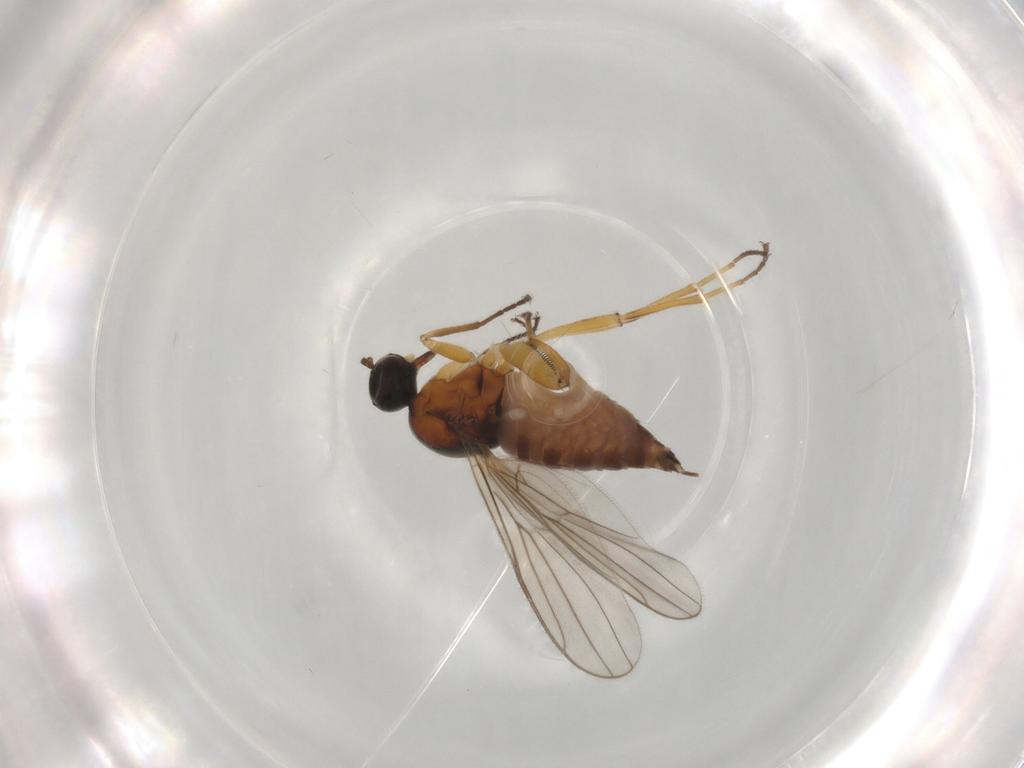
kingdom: Animalia
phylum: Arthropoda
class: Insecta
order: Diptera
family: Hybotidae
